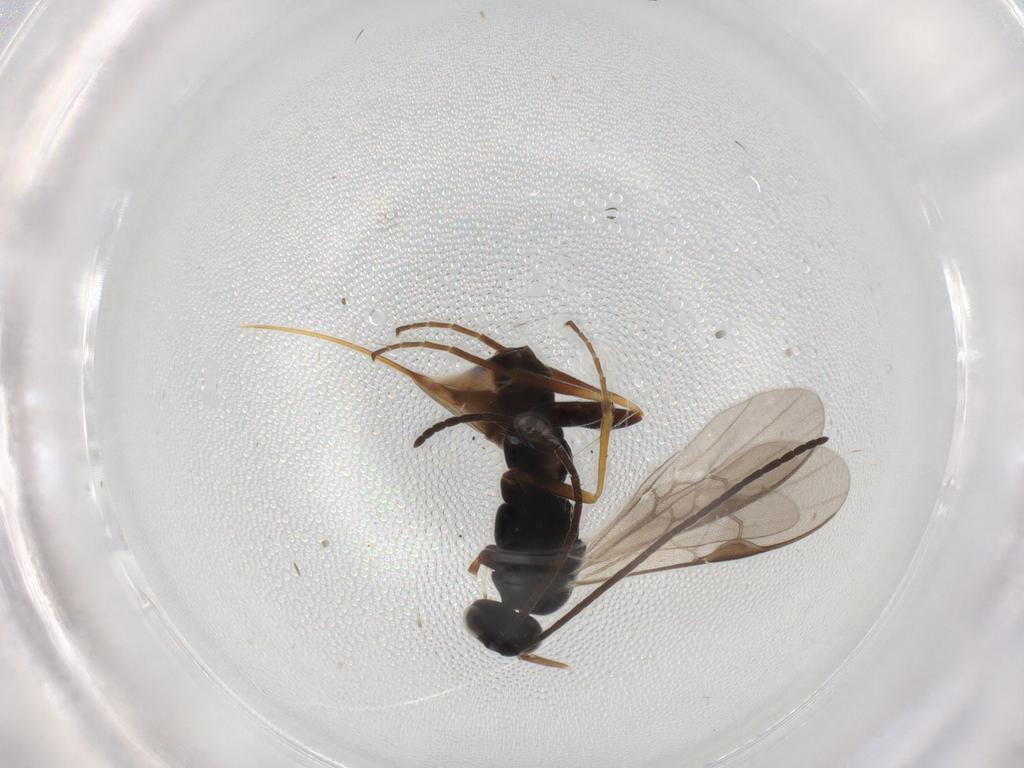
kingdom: Animalia
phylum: Arthropoda
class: Insecta
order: Hymenoptera
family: Braconidae
